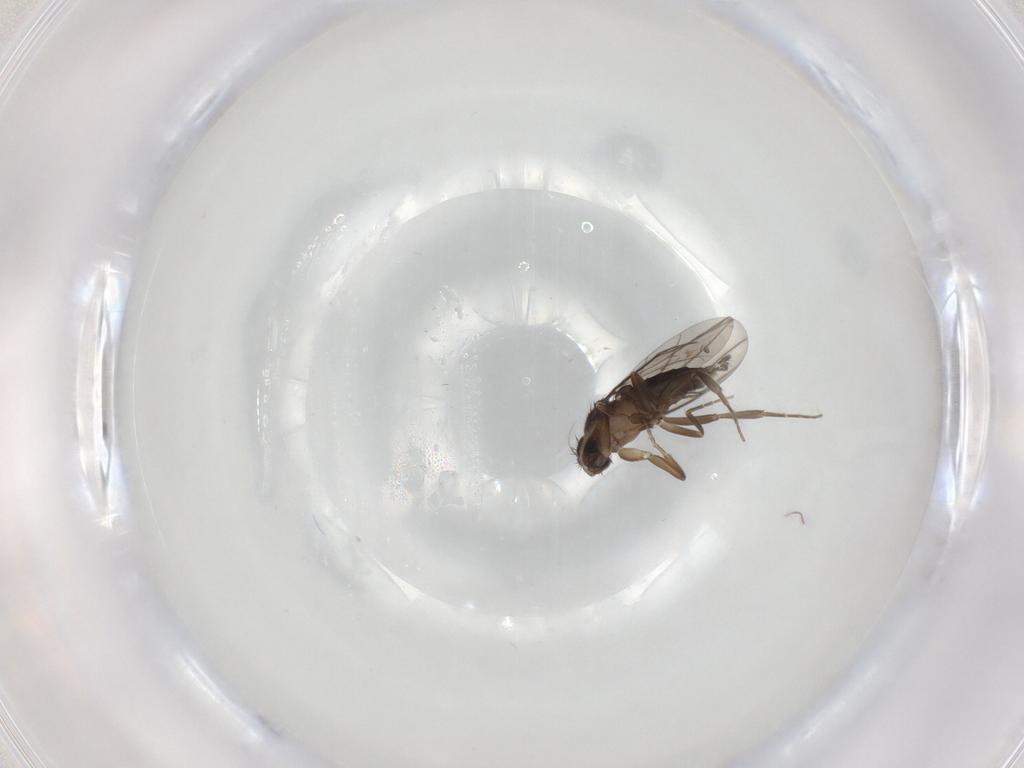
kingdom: Animalia
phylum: Arthropoda
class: Insecta
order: Diptera
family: Phoridae
